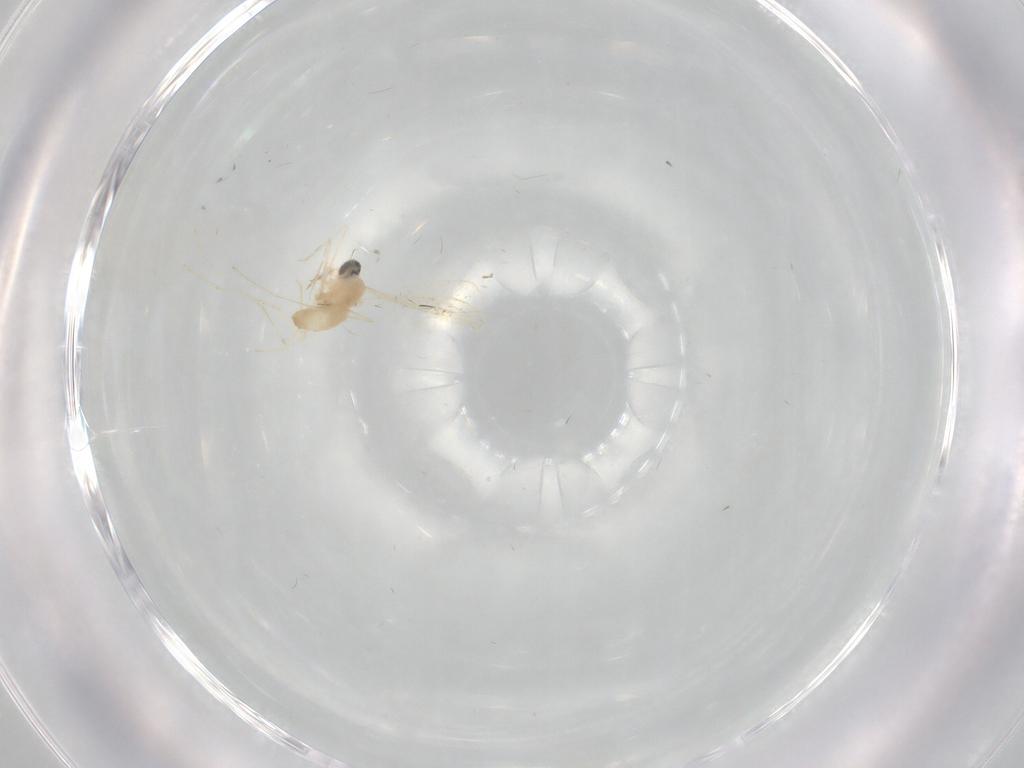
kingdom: Animalia
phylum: Arthropoda
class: Insecta
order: Diptera
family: Cecidomyiidae
